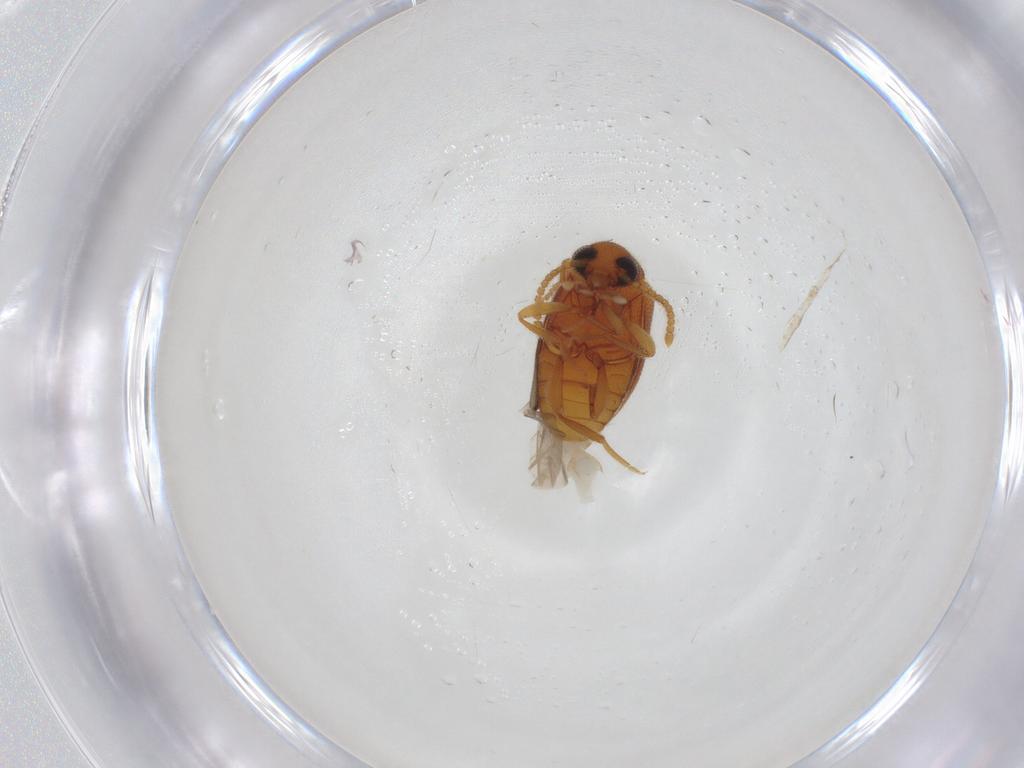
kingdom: Animalia
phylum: Arthropoda
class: Insecta
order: Coleoptera
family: Aderidae
